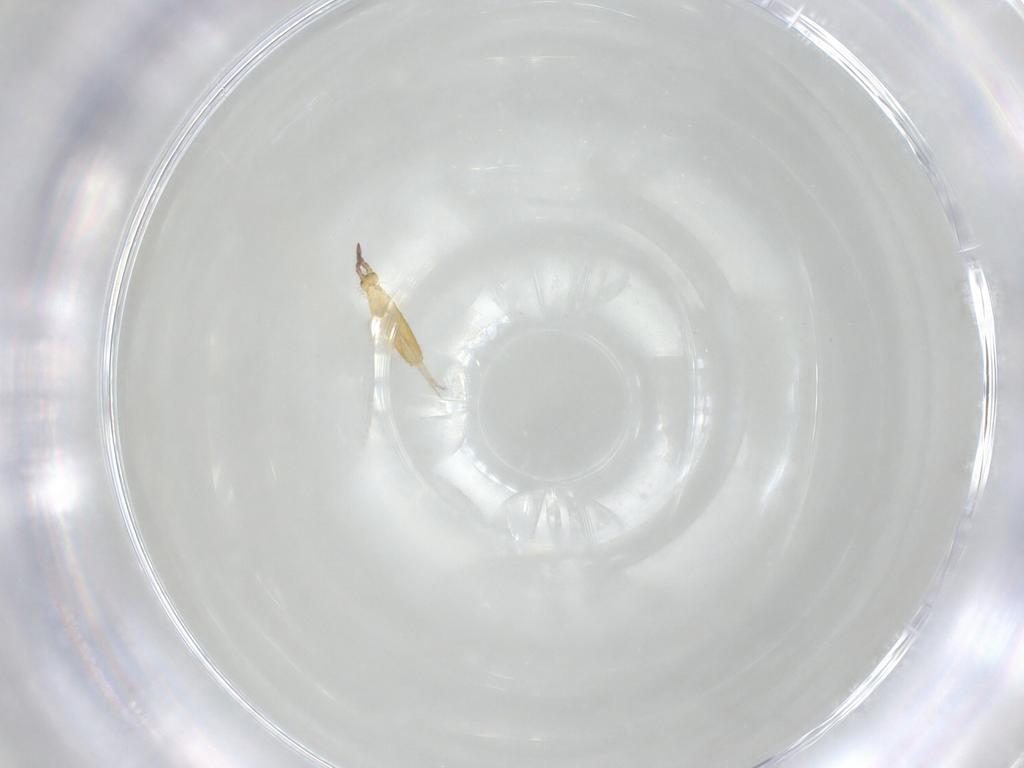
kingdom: Animalia
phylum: Arthropoda
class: Collembola
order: Entomobryomorpha
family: Entomobryidae
